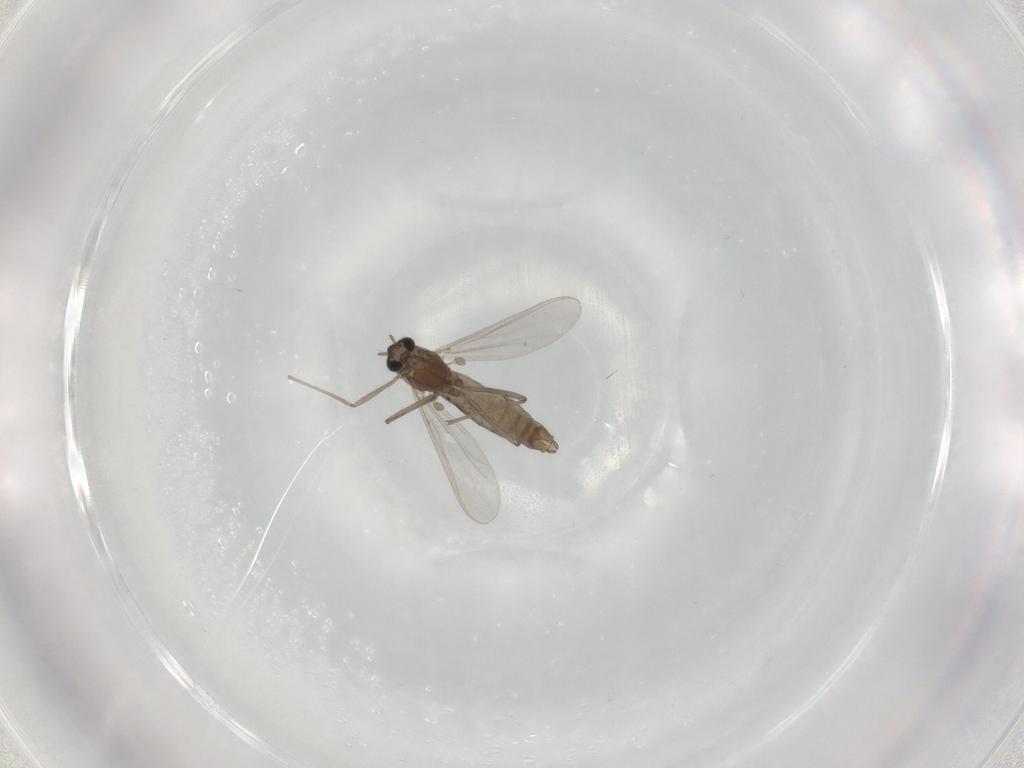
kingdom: Animalia
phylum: Arthropoda
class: Insecta
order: Diptera
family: Chironomidae
